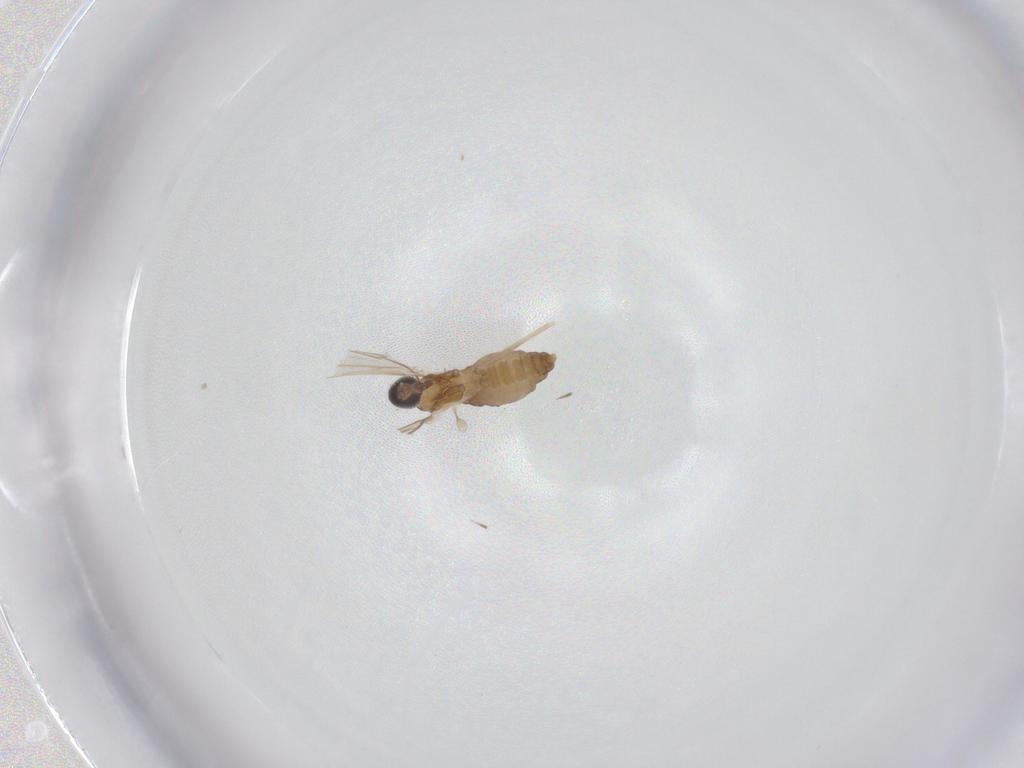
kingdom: Animalia
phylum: Arthropoda
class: Insecta
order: Diptera
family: Cecidomyiidae
